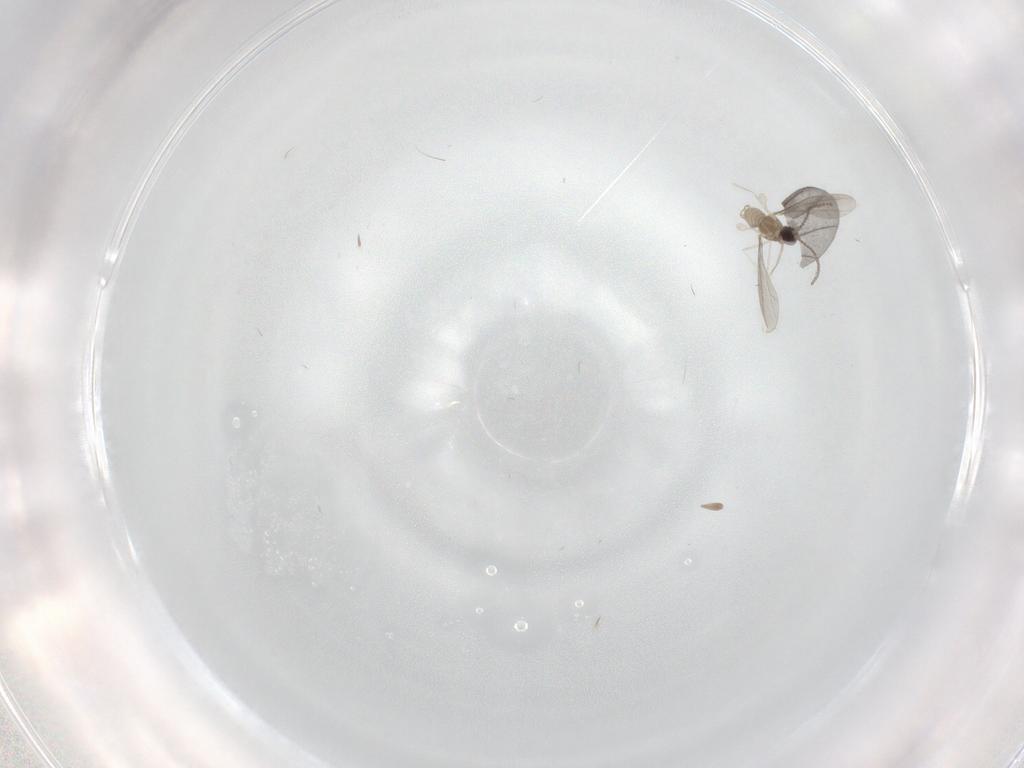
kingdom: Animalia
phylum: Arthropoda
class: Insecta
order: Diptera
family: Cecidomyiidae
